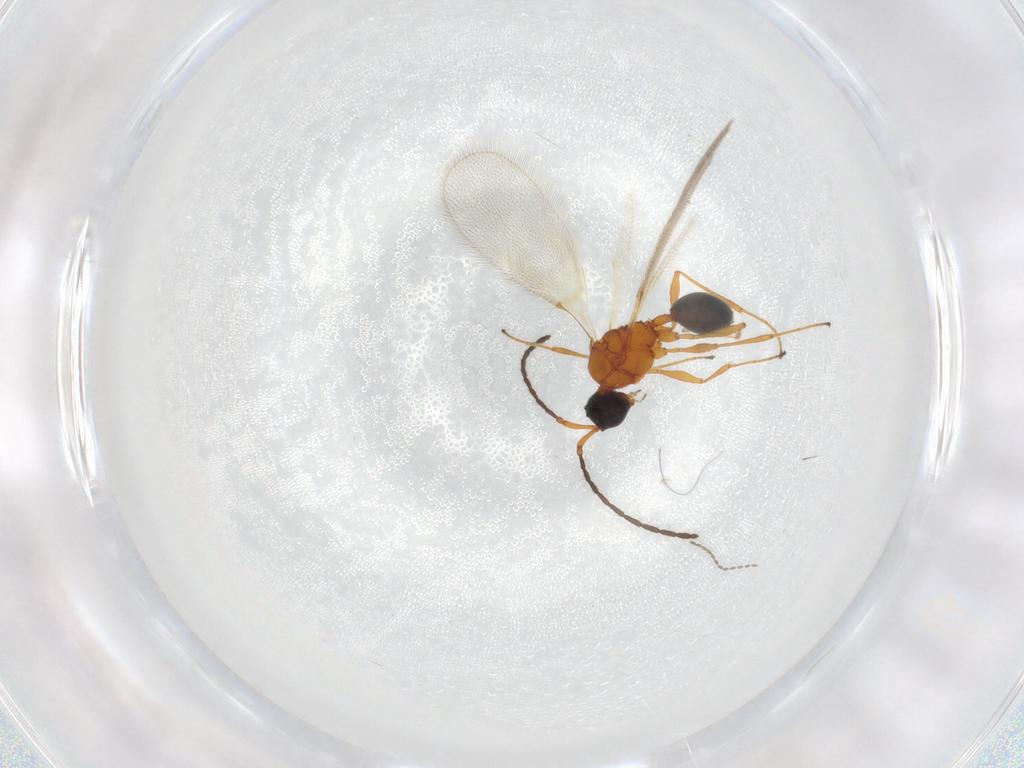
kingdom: Animalia
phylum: Arthropoda
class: Insecta
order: Hymenoptera
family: Diapriidae
